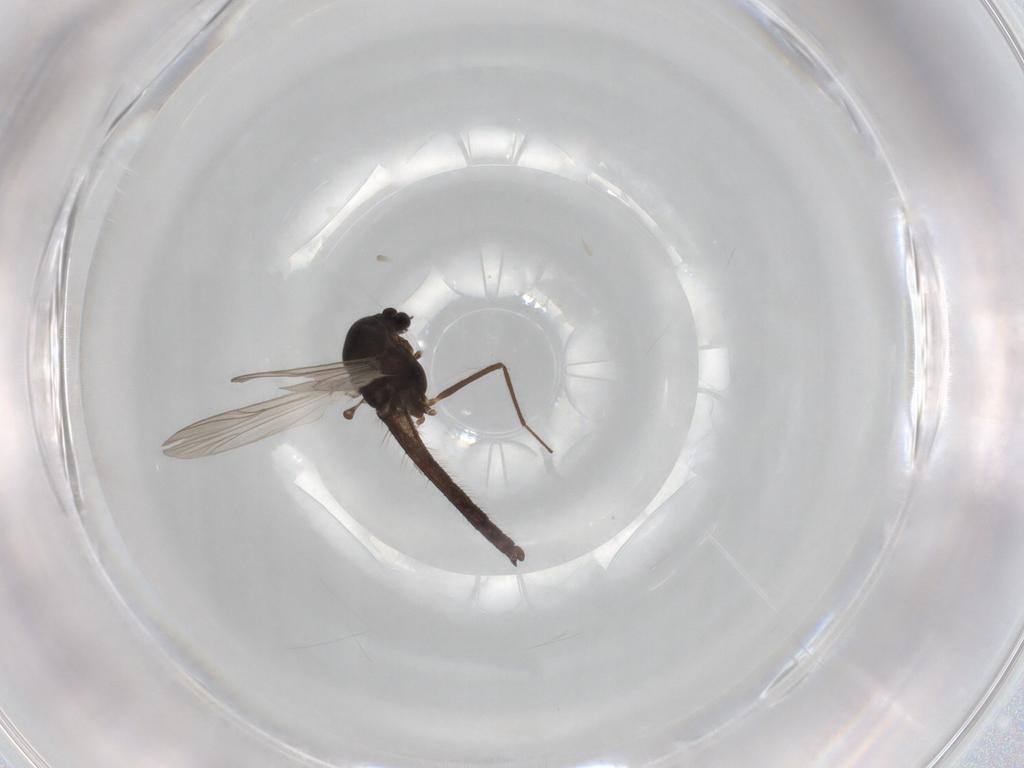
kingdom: Animalia
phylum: Arthropoda
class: Insecta
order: Diptera
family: Chironomidae
